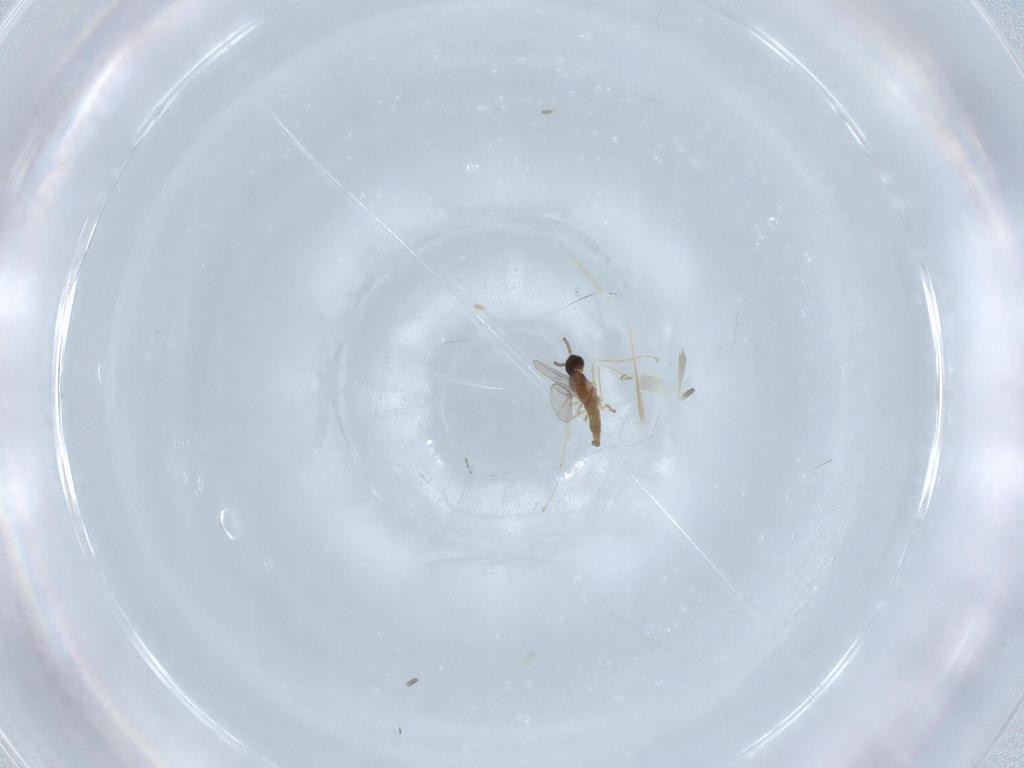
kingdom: Animalia
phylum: Arthropoda
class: Insecta
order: Diptera
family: Cecidomyiidae
